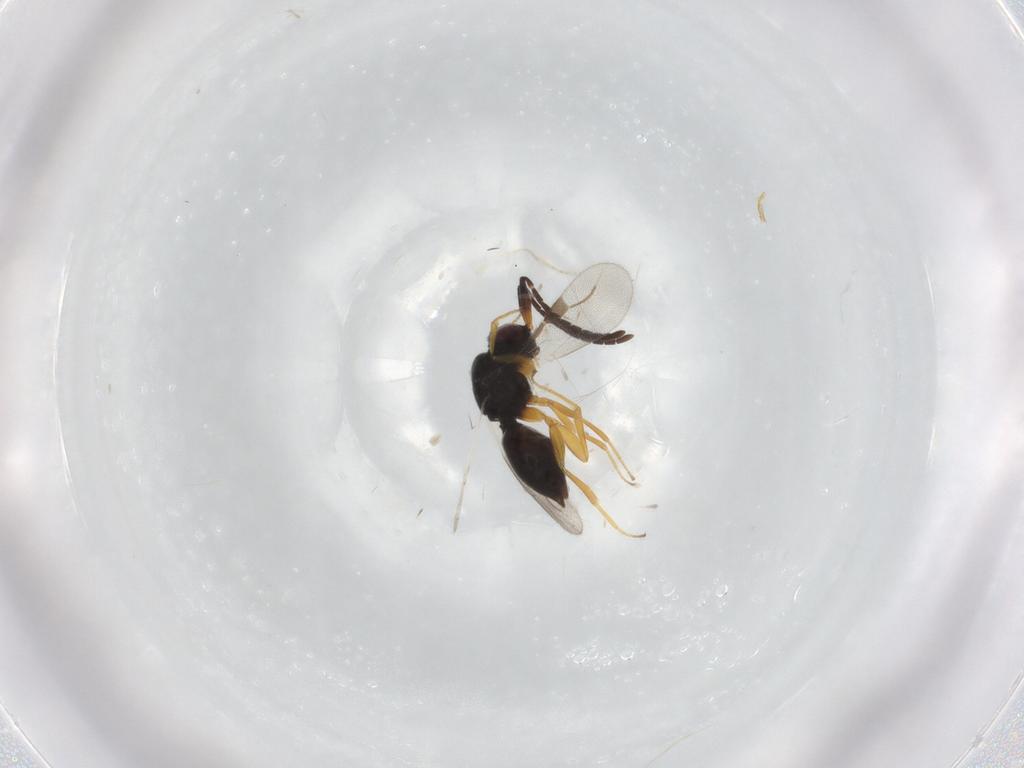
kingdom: Animalia
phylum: Arthropoda
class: Insecta
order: Hymenoptera
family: Megaspilidae
